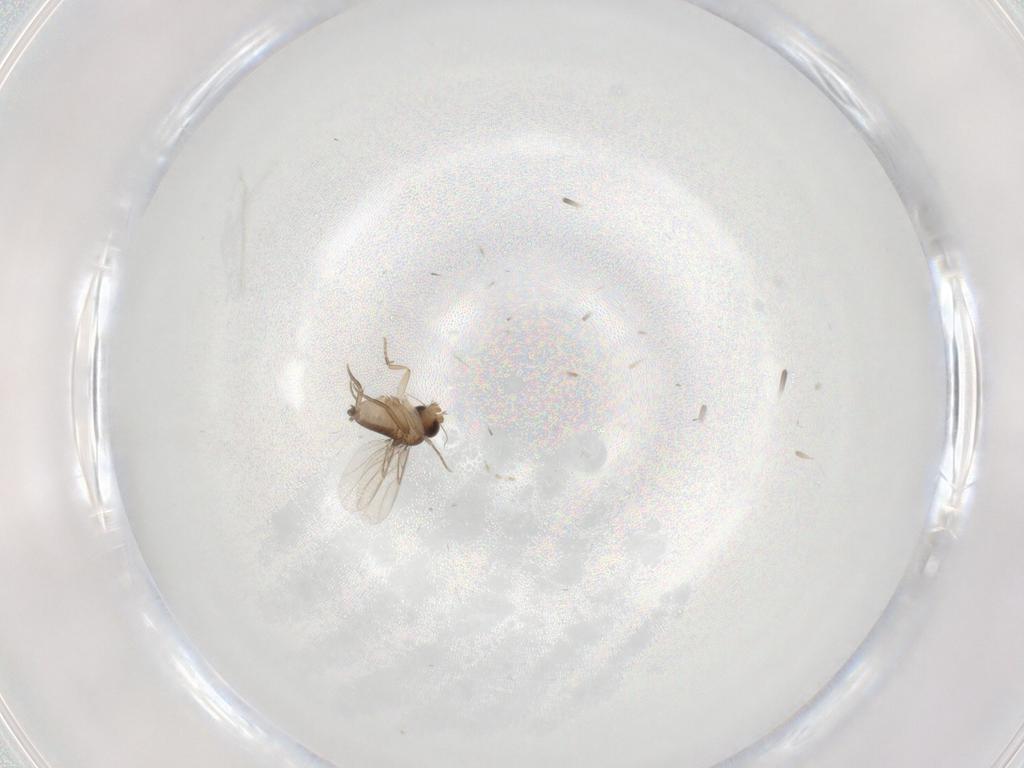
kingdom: Animalia
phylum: Arthropoda
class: Insecta
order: Diptera
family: Phoridae
